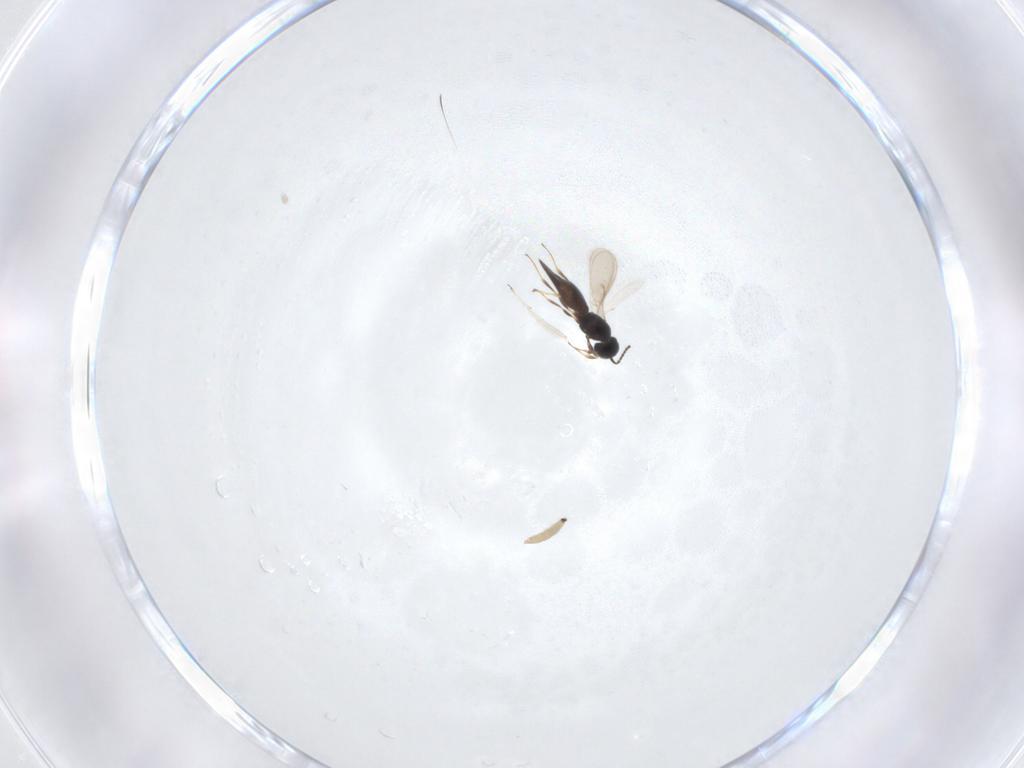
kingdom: Animalia
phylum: Arthropoda
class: Insecta
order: Hymenoptera
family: Scelionidae
